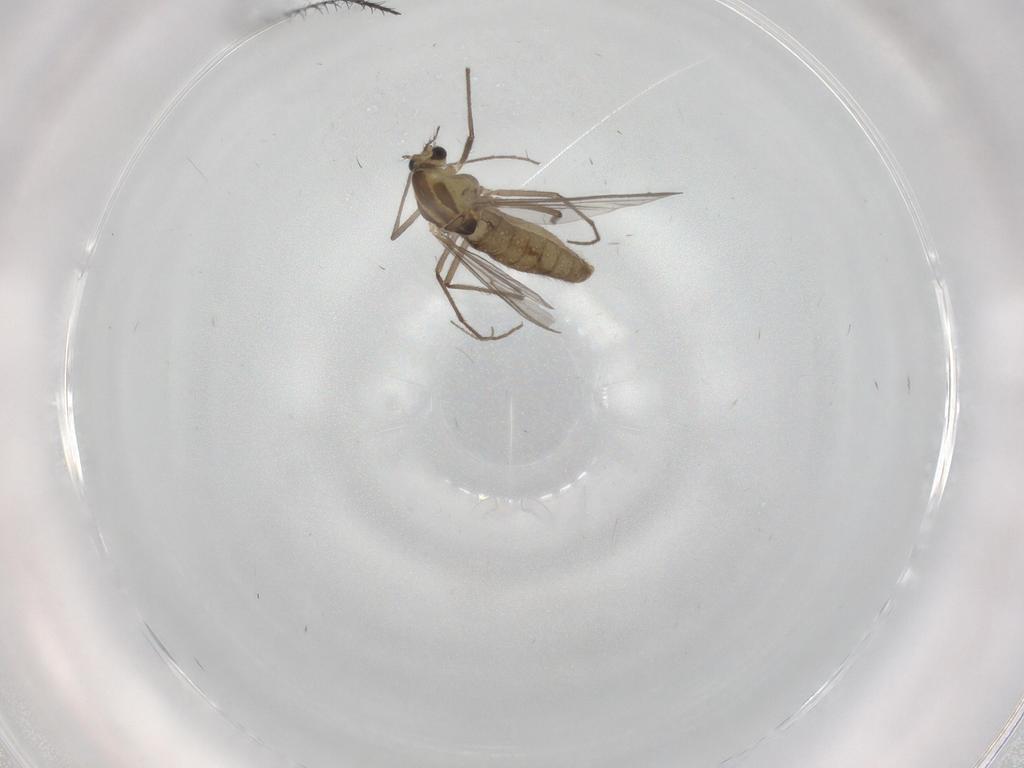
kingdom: Animalia
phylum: Arthropoda
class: Insecta
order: Diptera
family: Chironomidae
